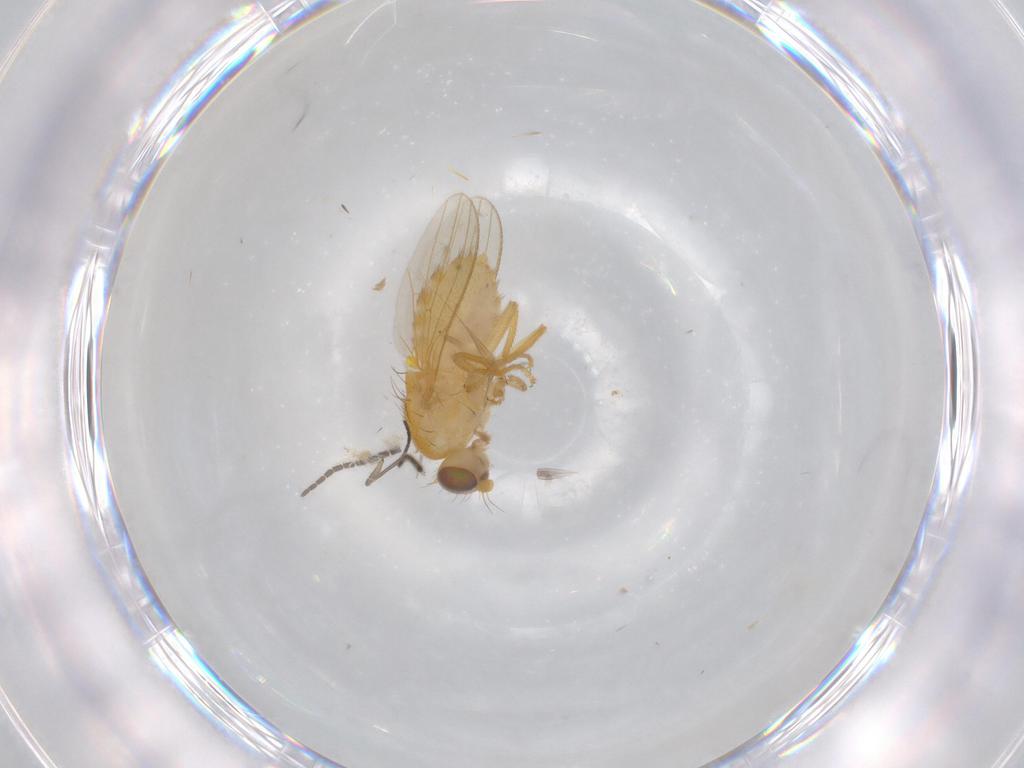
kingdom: Animalia
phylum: Arthropoda
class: Insecta
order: Diptera
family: Chyromyidae
